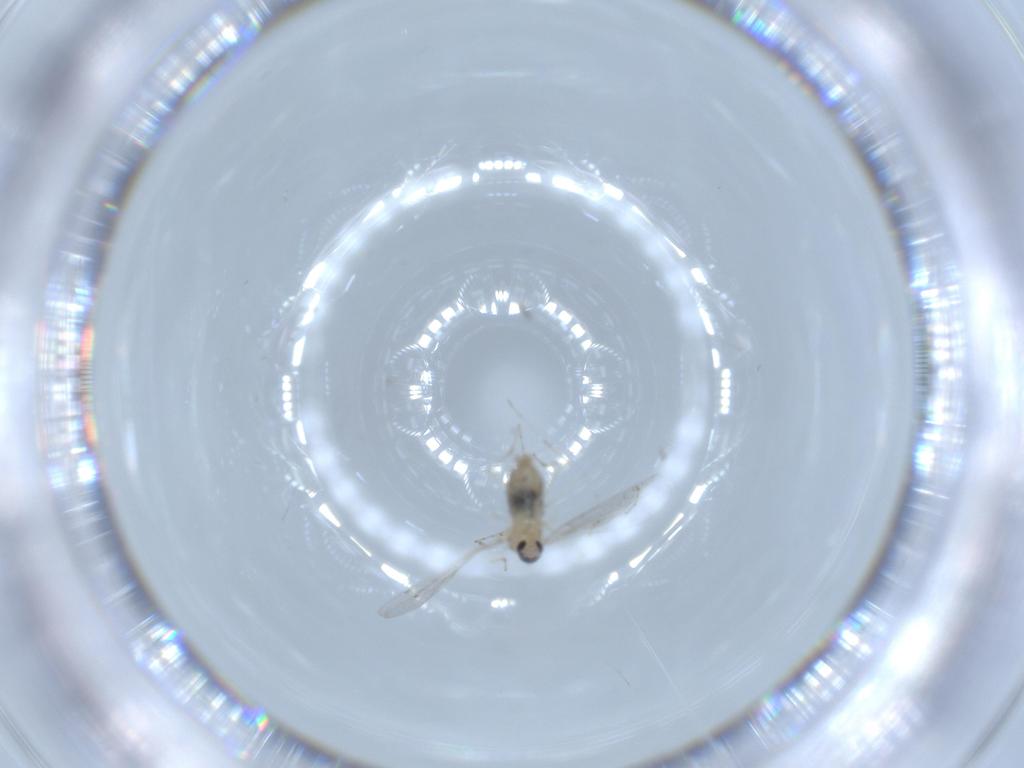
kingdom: Animalia
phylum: Arthropoda
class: Insecta
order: Diptera
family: Cecidomyiidae
